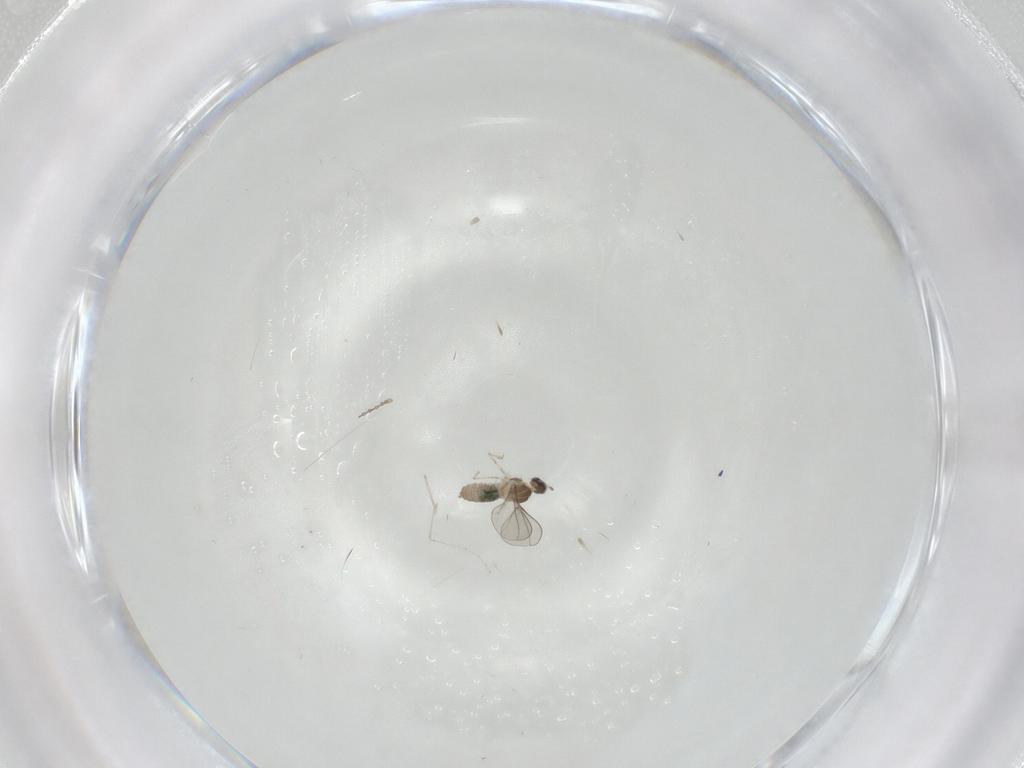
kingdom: Animalia
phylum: Arthropoda
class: Insecta
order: Diptera
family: Cecidomyiidae
